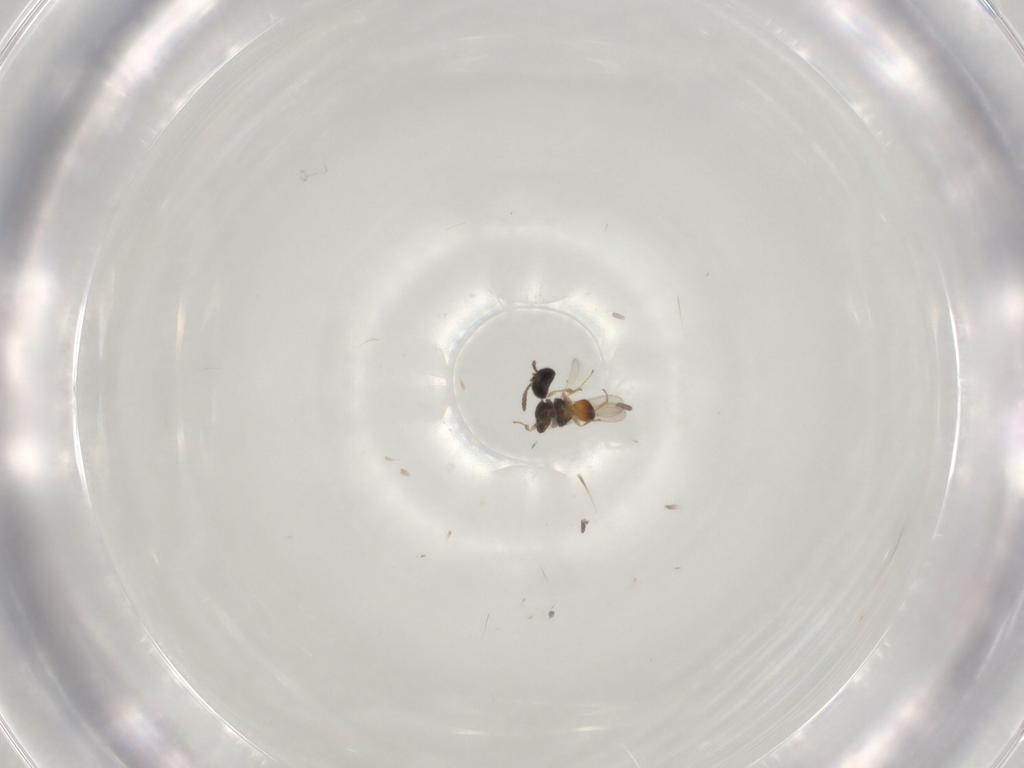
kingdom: Animalia
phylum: Arthropoda
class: Insecta
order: Hymenoptera
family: Scelionidae
